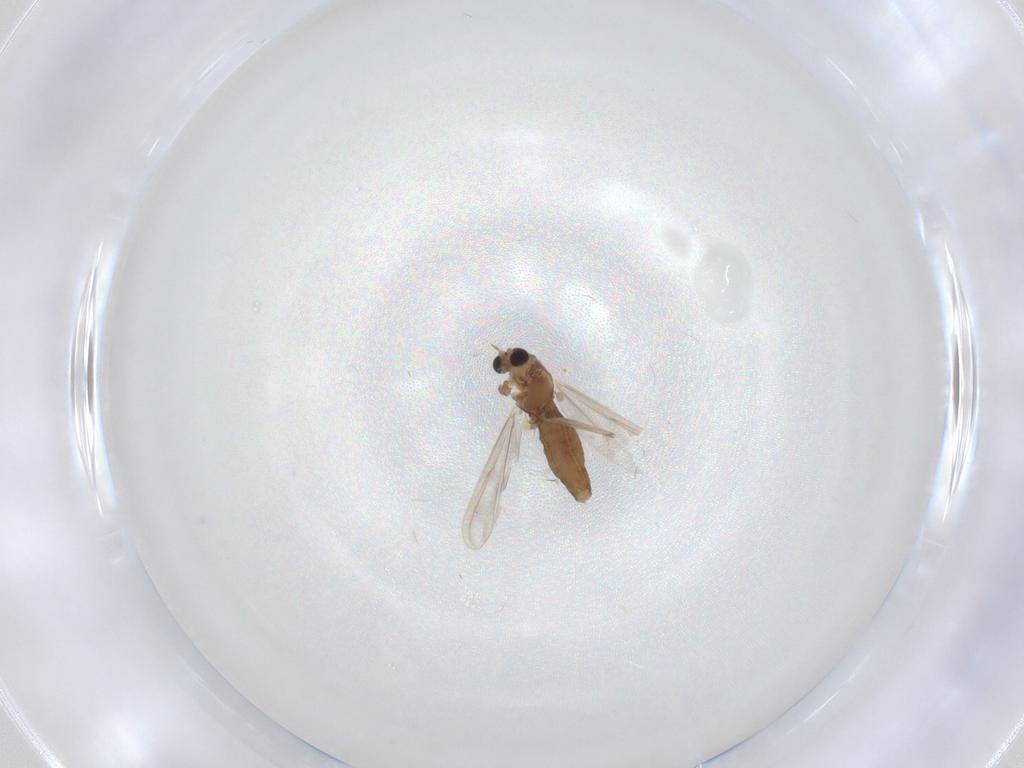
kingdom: Animalia
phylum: Arthropoda
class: Insecta
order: Diptera
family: Chironomidae
